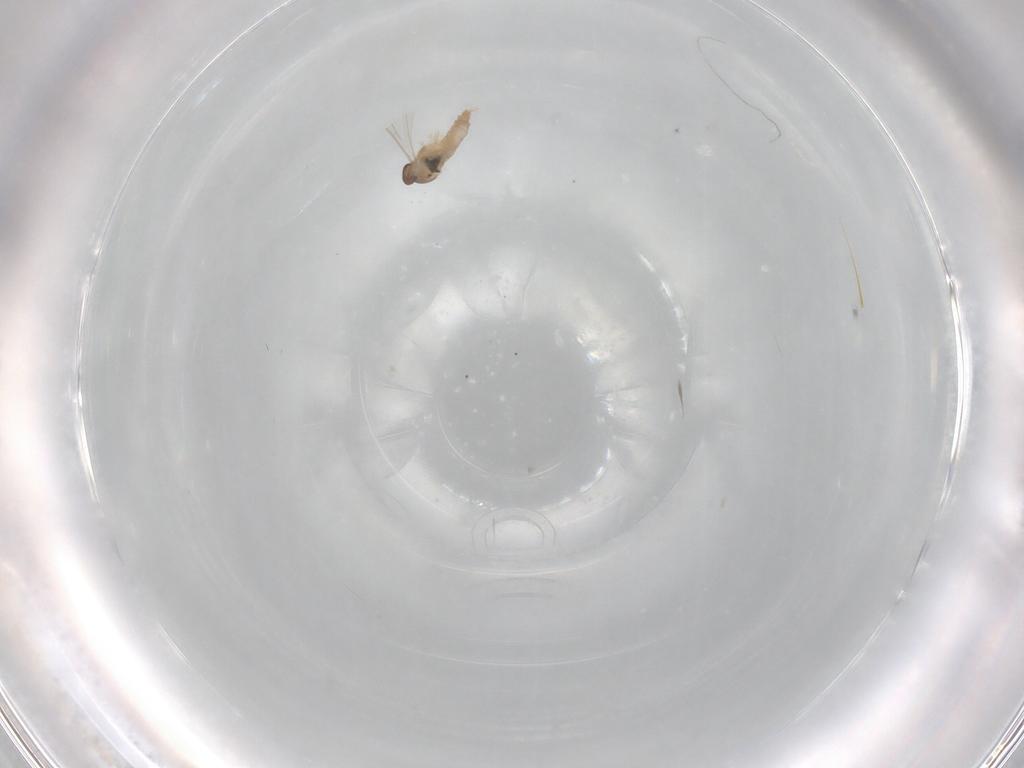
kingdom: Animalia
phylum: Arthropoda
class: Insecta
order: Diptera
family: Cecidomyiidae
